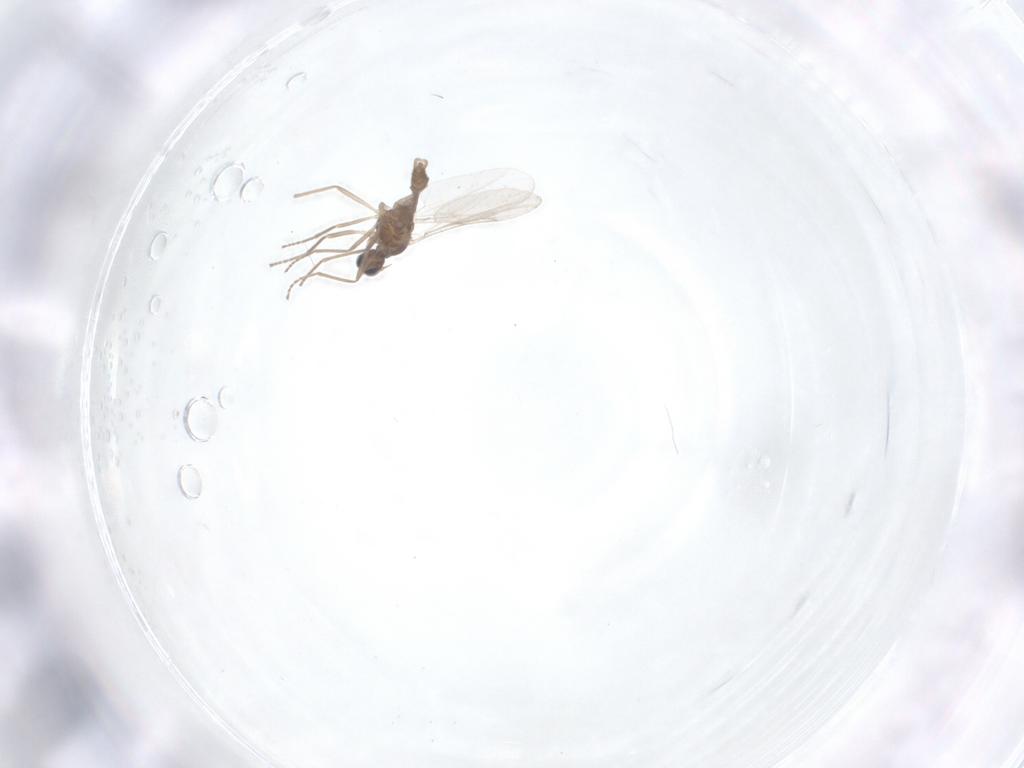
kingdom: Animalia
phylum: Arthropoda
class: Insecta
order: Diptera
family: Cecidomyiidae
